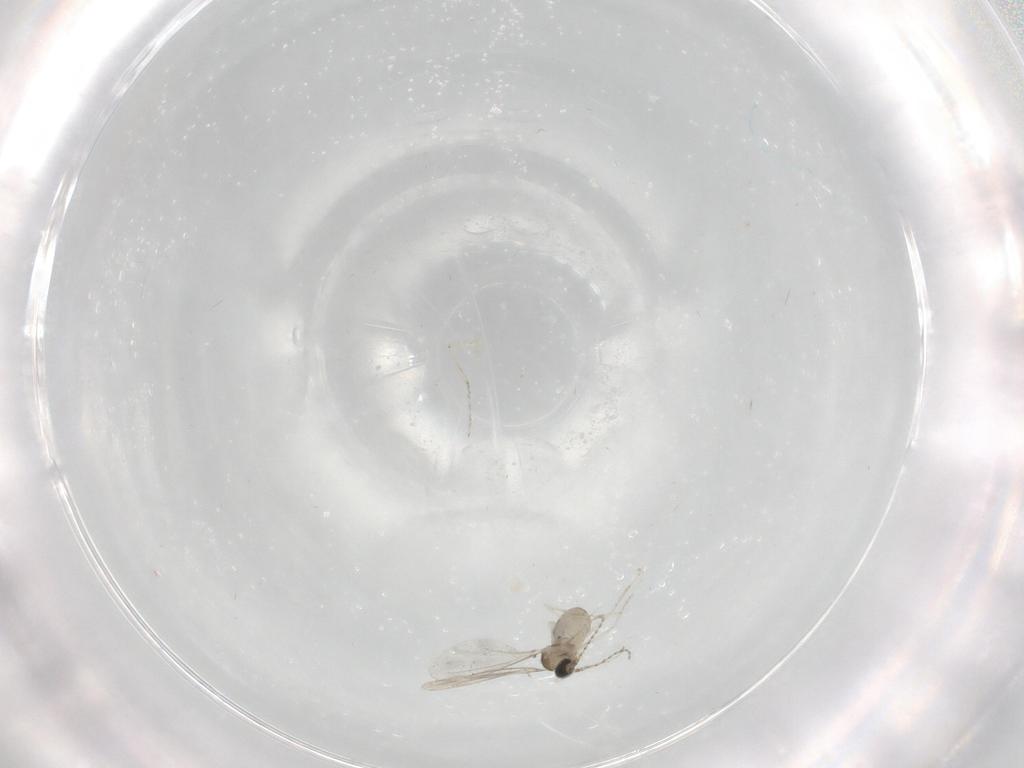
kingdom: Animalia
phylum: Arthropoda
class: Insecta
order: Diptera
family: Cecidomyiidae
